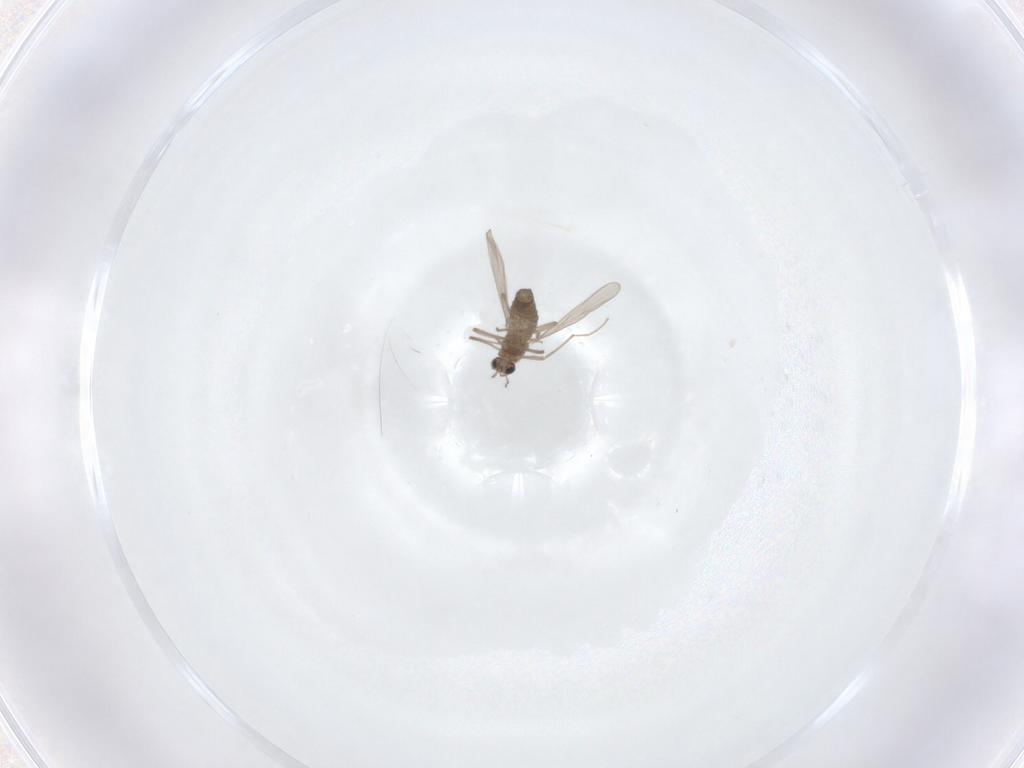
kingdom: Animalia
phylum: Arthropoda
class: Insecta
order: Diptera
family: Chironomidae
